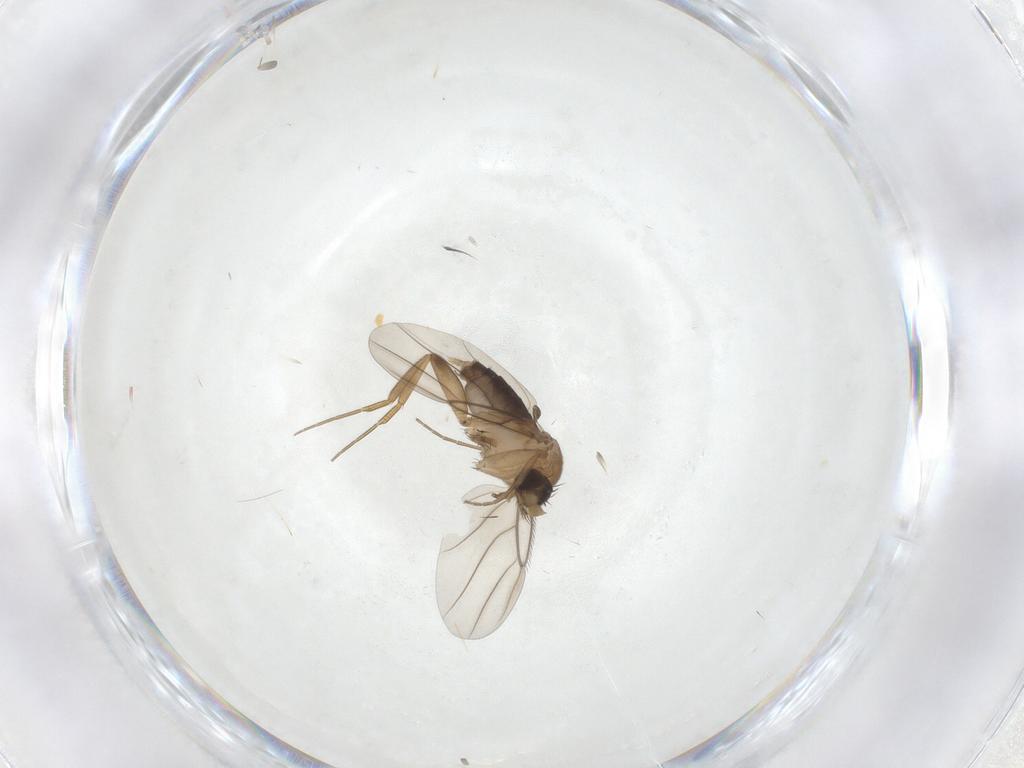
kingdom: Animalia
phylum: Arthropoda
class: Insecta
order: Diptera
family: Phoridae
